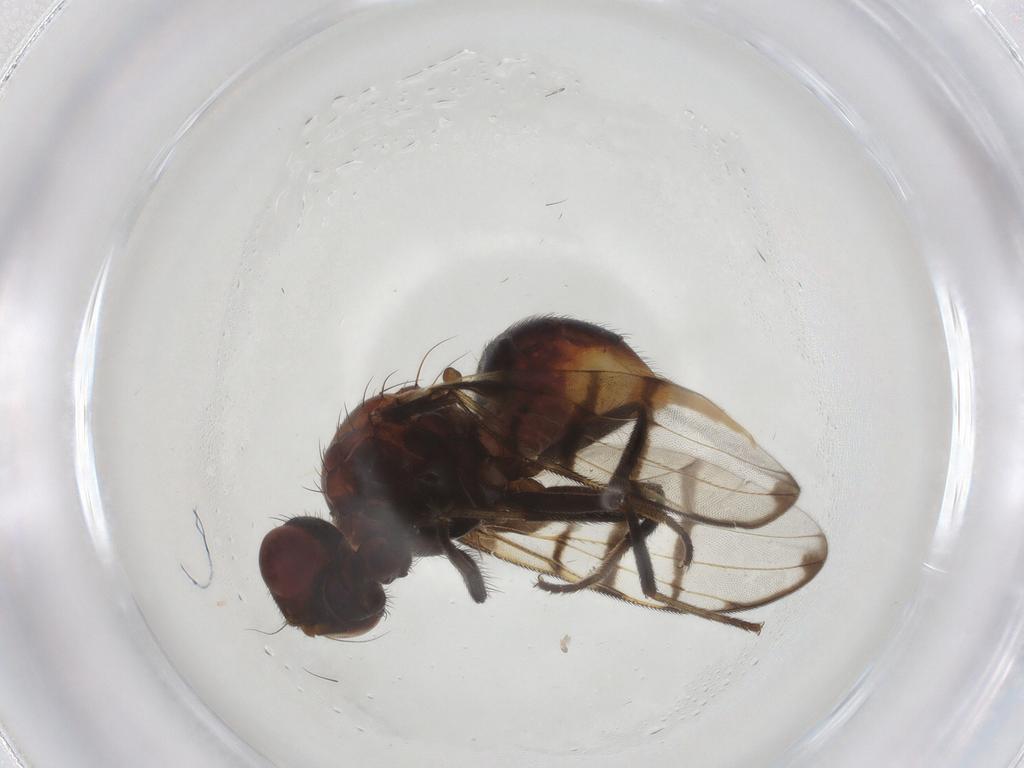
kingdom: Animalia
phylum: Arthropoda
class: Insecta
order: Diptera
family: Platystomatidae
